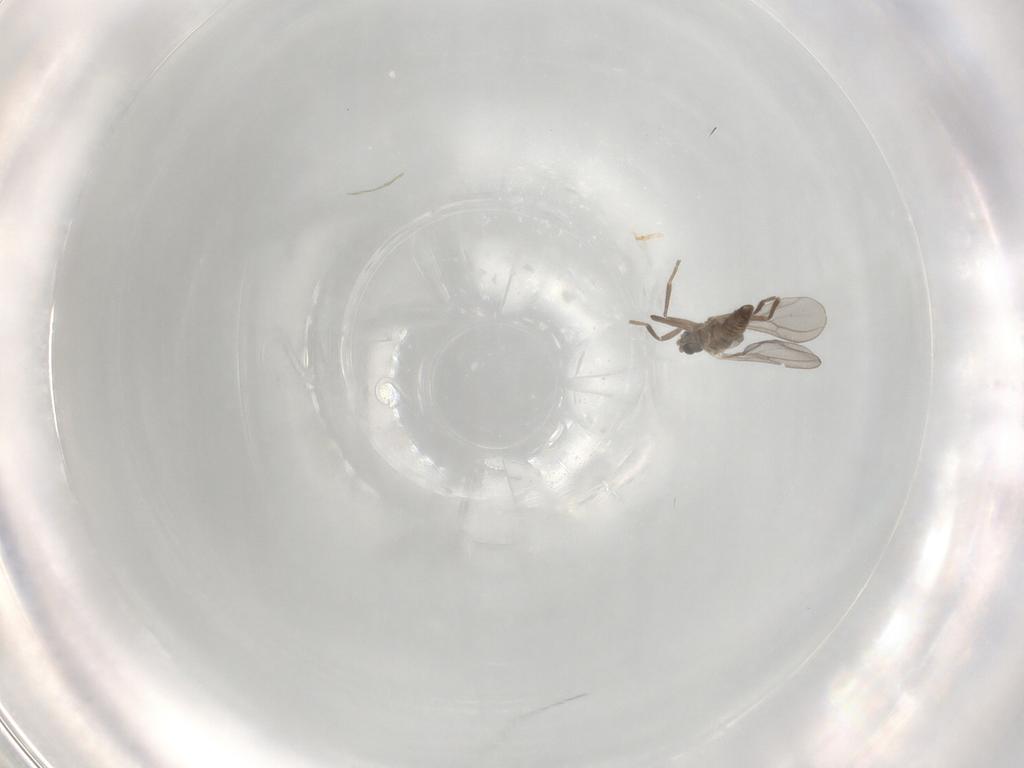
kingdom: Animalia
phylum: Arthropoda
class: Insecta
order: Diptera
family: Cecidomyiidae
